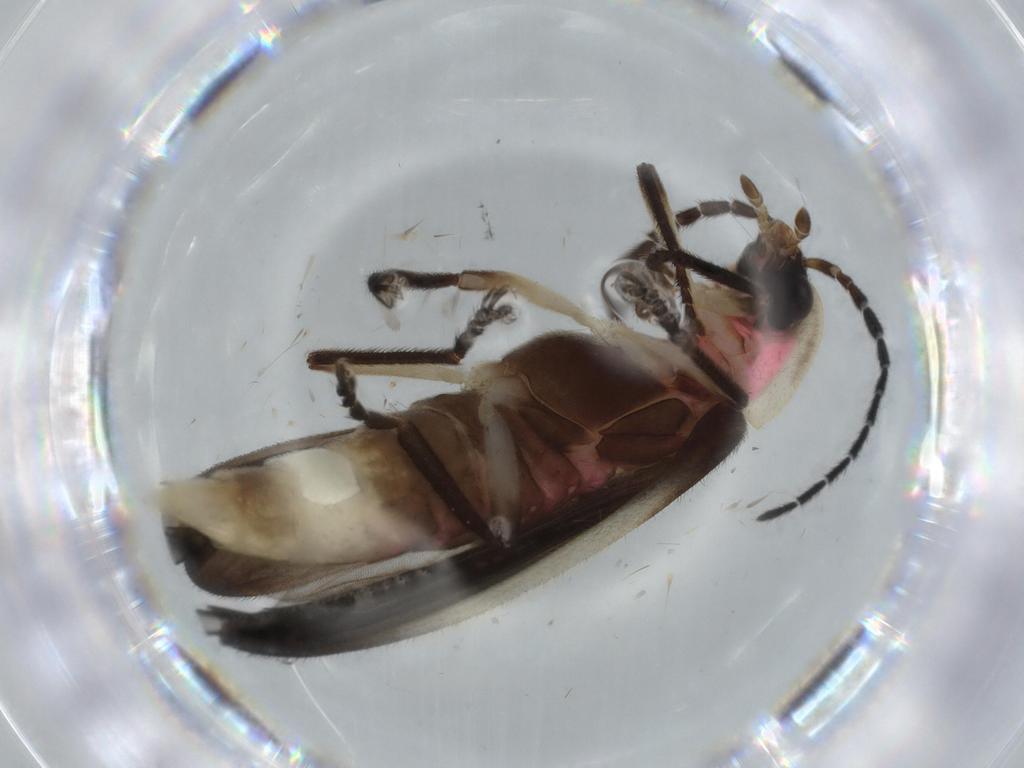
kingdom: Animalia
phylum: Arthropoda
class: Insecta
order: Coleoptera
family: Lampyridae
